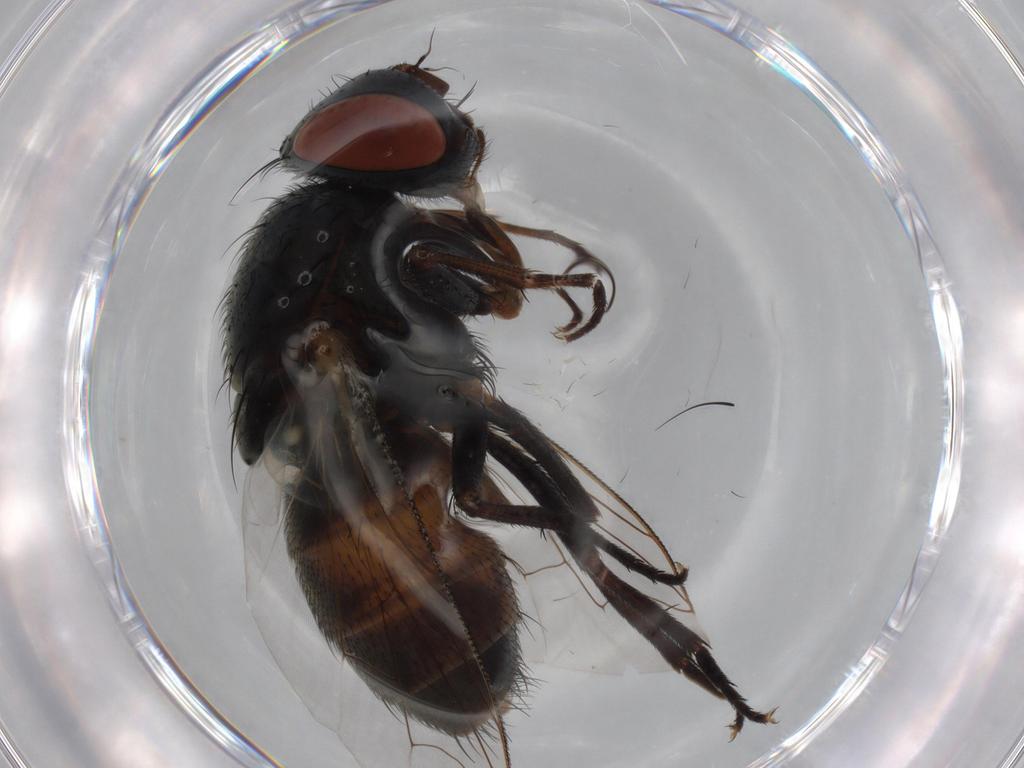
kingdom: Animalia
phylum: Arthropoda
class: Insecta
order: Diptera
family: Sarcophagidae
